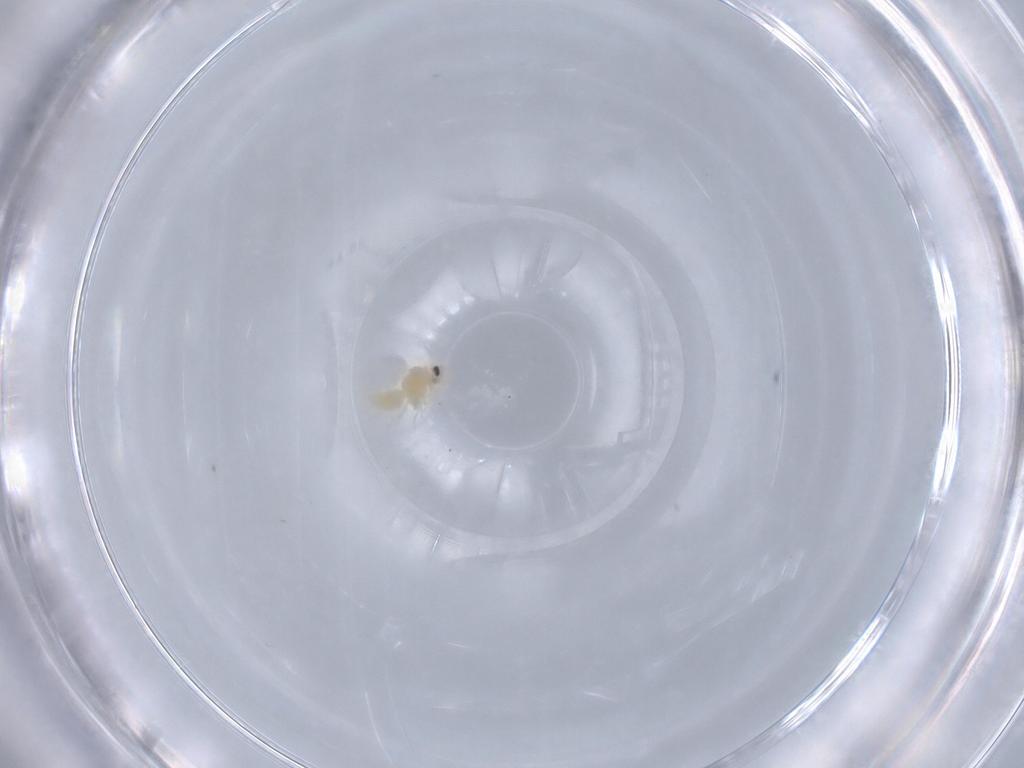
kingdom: Animalia
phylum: Arthropoda
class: Insecta
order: Hemiptera
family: Aleyrodidae
